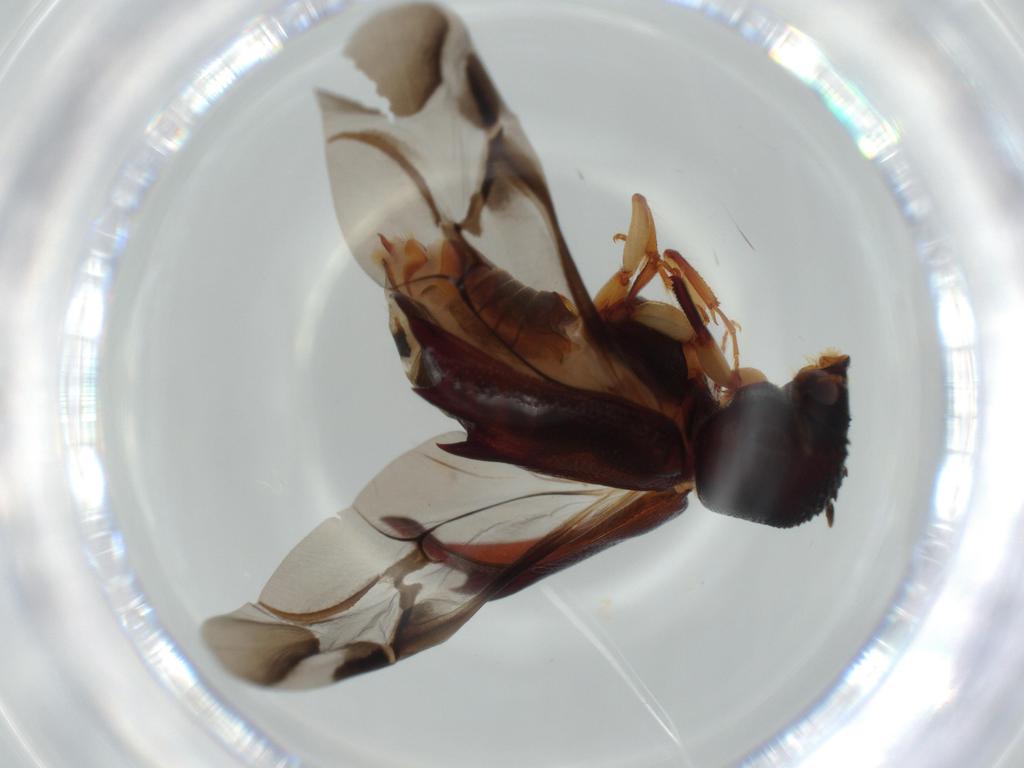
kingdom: Animalia
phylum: Arthropoda
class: Insecta
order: Coleoptera
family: Bostrichidae
